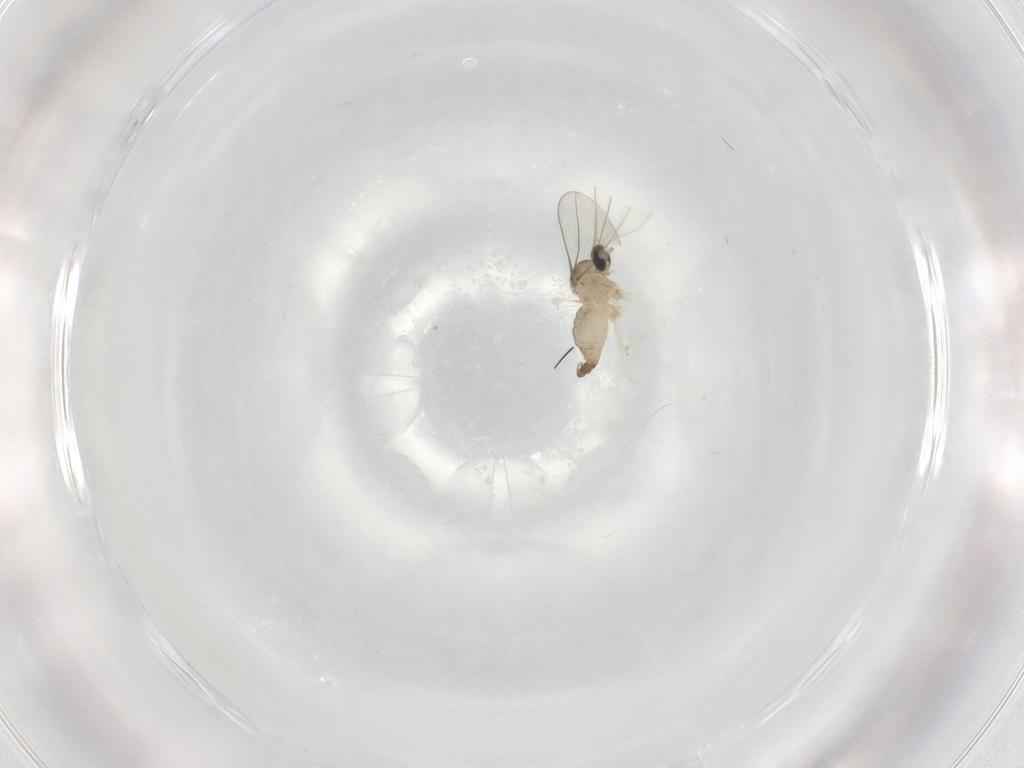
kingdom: Animalia
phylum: Arthropoda
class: Insecta
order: Diptera
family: Cecidomyiidae
